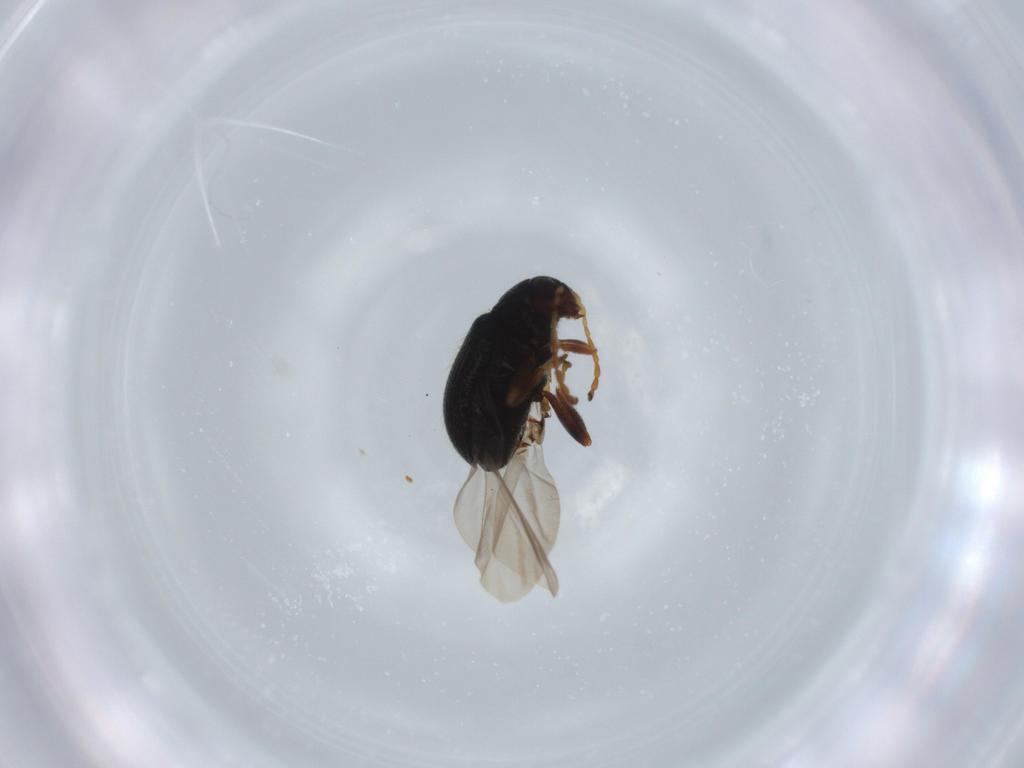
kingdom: Animalia
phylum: Arthropoda
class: Insecta
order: Coleoptera
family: Chrysomelidae
